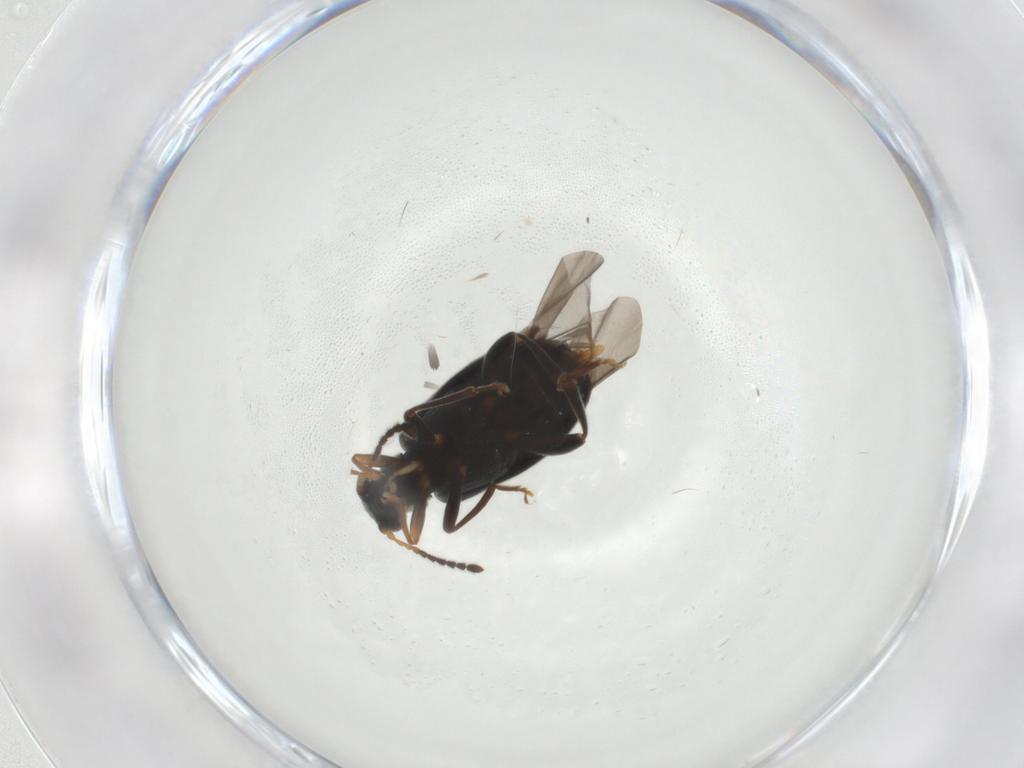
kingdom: Animalia
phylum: Arthropoda
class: Insecta
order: Coleoptera
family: Aderidae
